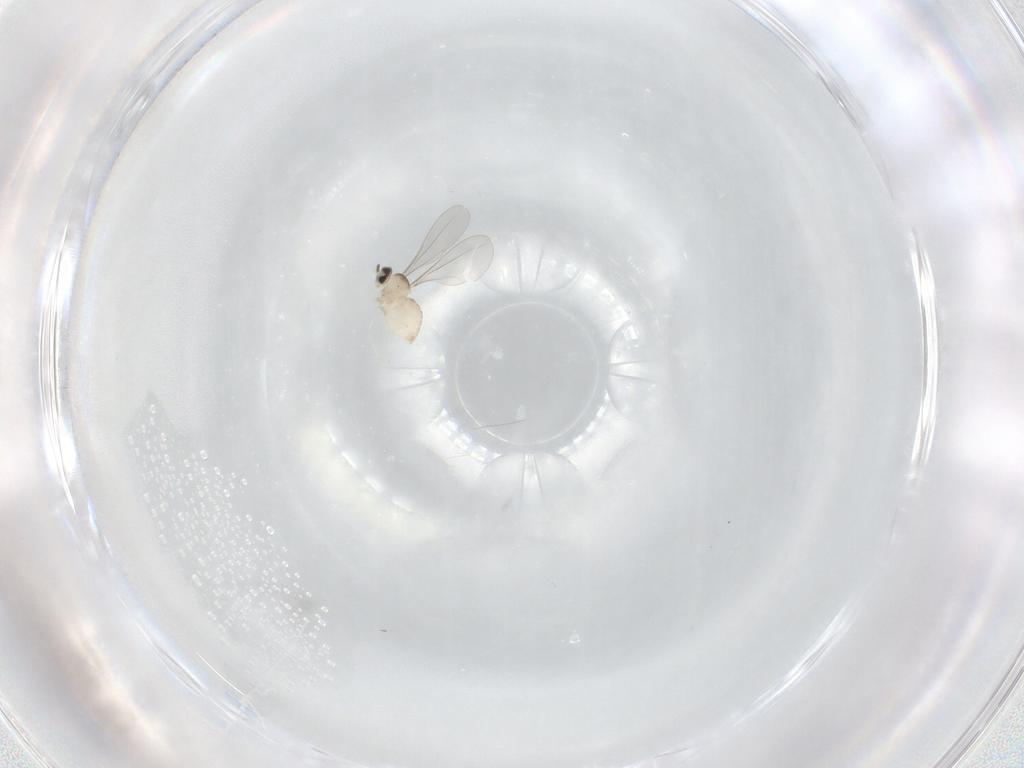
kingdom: Animalia
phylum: Arthropoda
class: Insecta
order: Diptera
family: Cecidomyiidae
